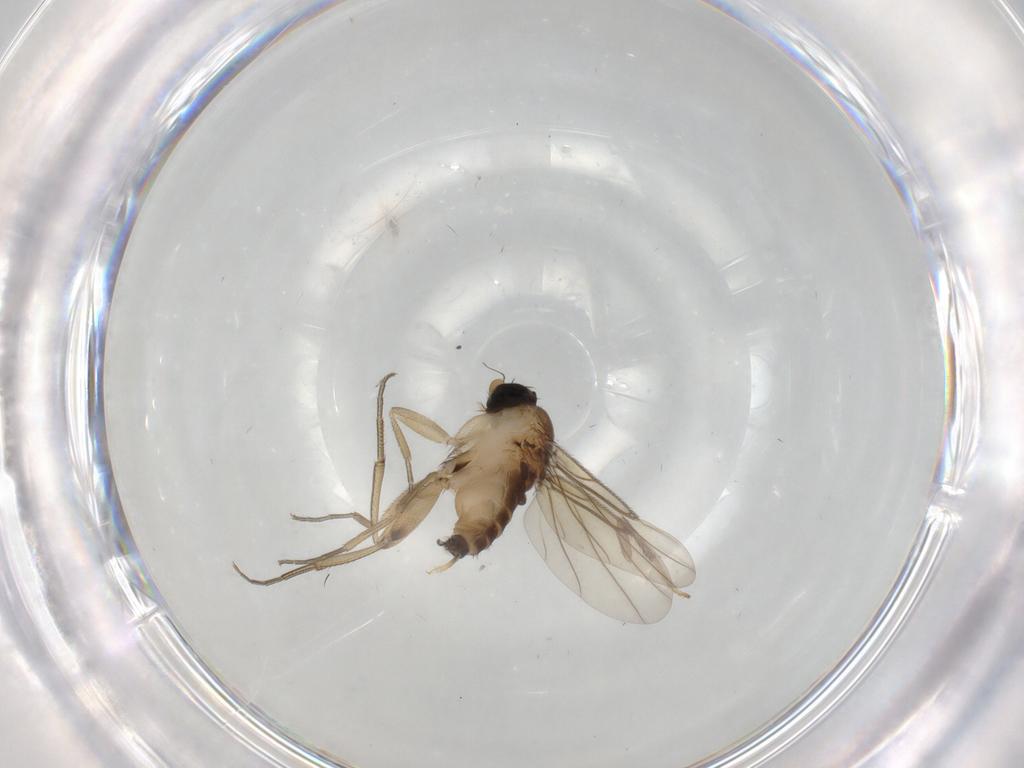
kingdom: Animalia
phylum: Arthropoda
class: Insecta
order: Diptera
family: Phoridae
